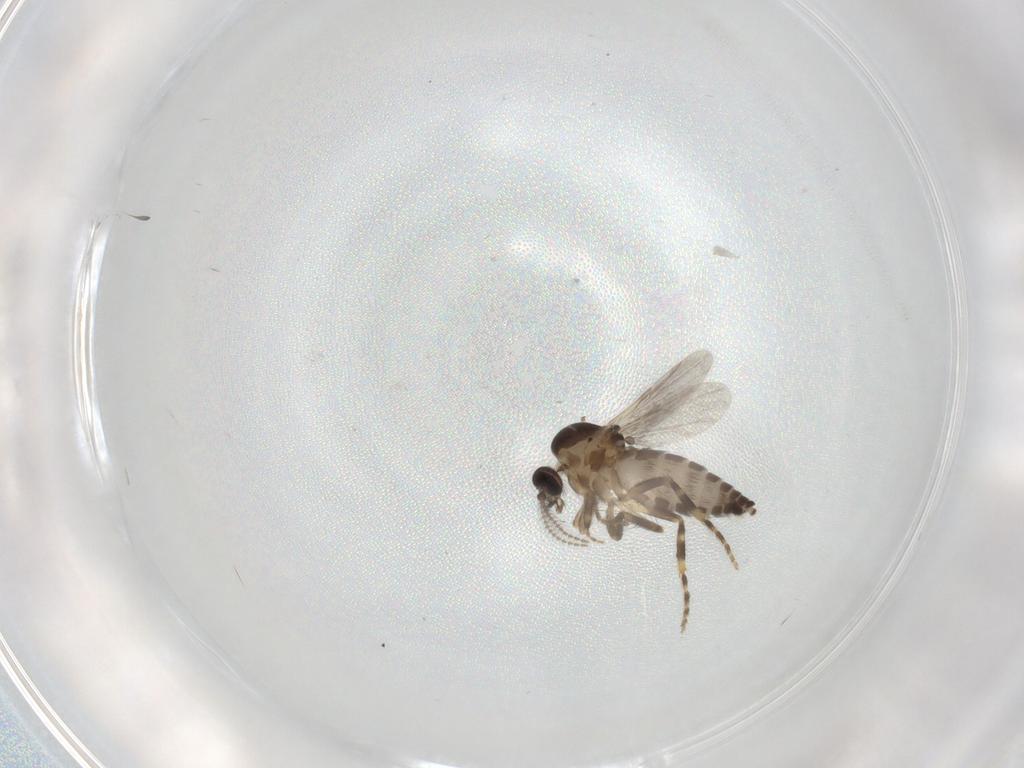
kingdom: Animalia
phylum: Arthropoda
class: Insecta
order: Diptera
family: Ceratopogonidae
